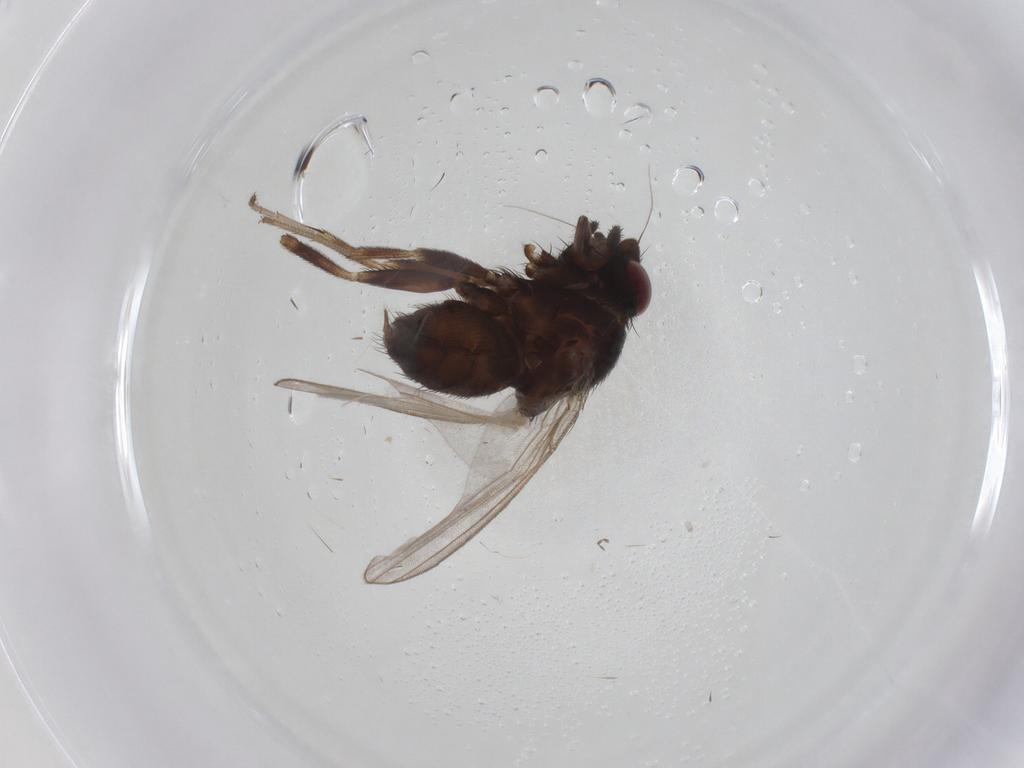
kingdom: Animalia
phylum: Arthropoda
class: Insecta
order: Diptera
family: Milichiidae
